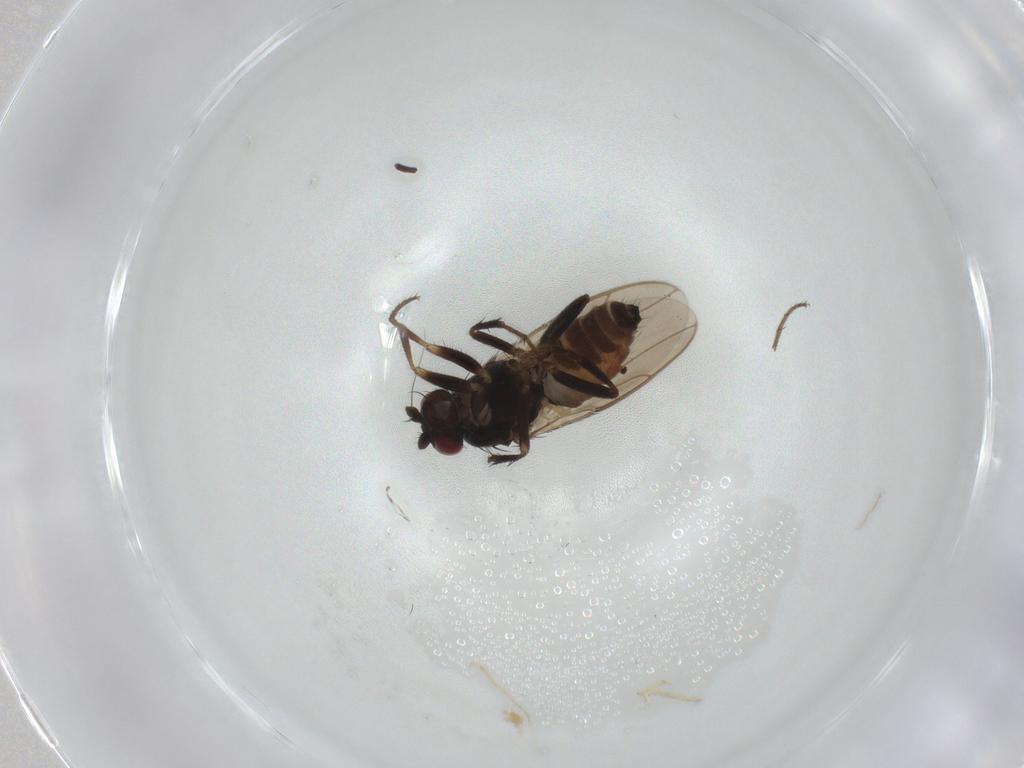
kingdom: Animalia
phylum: Arthropoda
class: Insecta
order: Diptera
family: Sphaeroceridae
